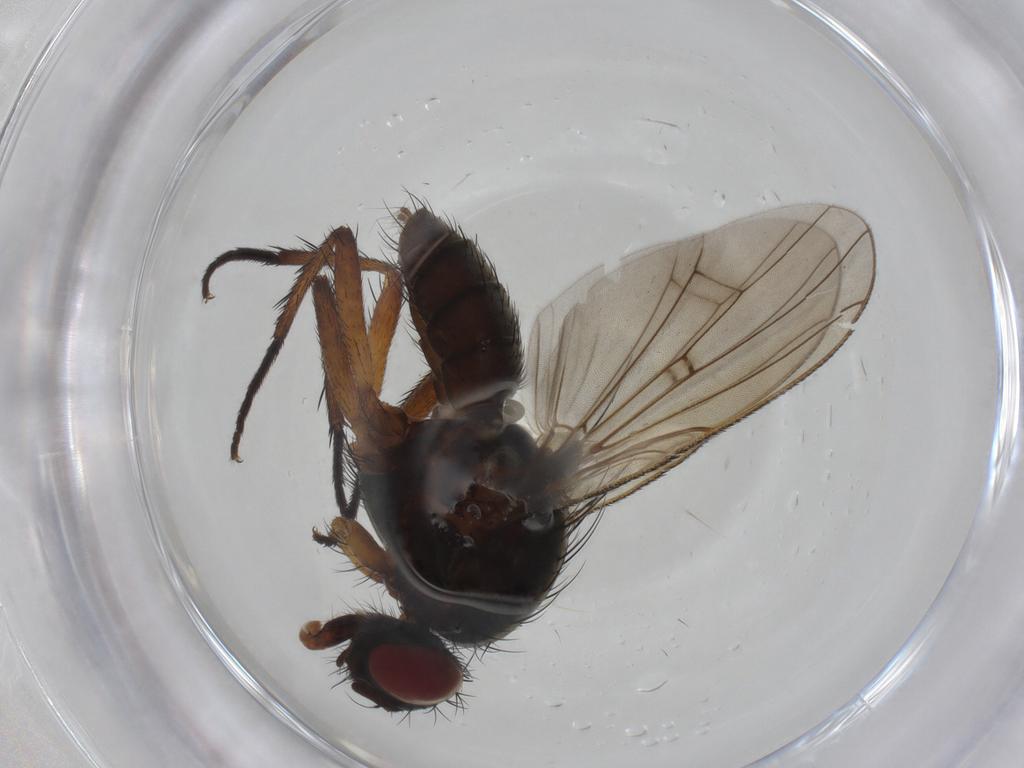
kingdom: Animalia
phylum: Arthropoda
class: Insecta
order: Diptera
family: Anthomyiidae
